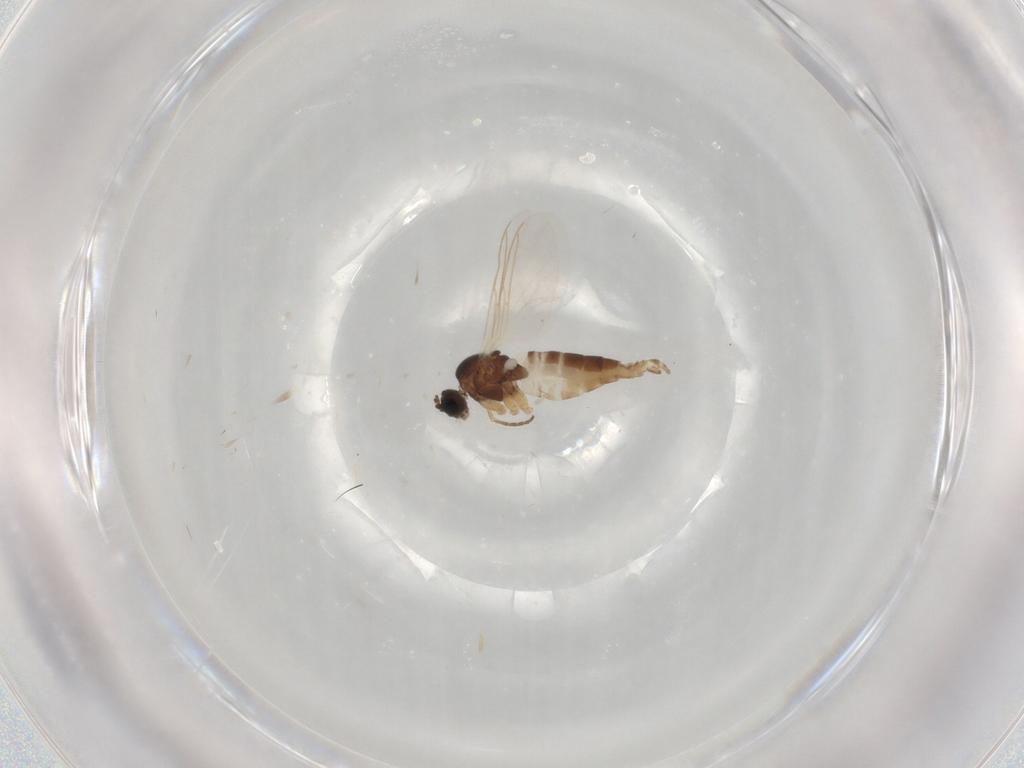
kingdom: Animalia
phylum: Arthropoda
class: Insecta
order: Diptera
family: Sciaridae
